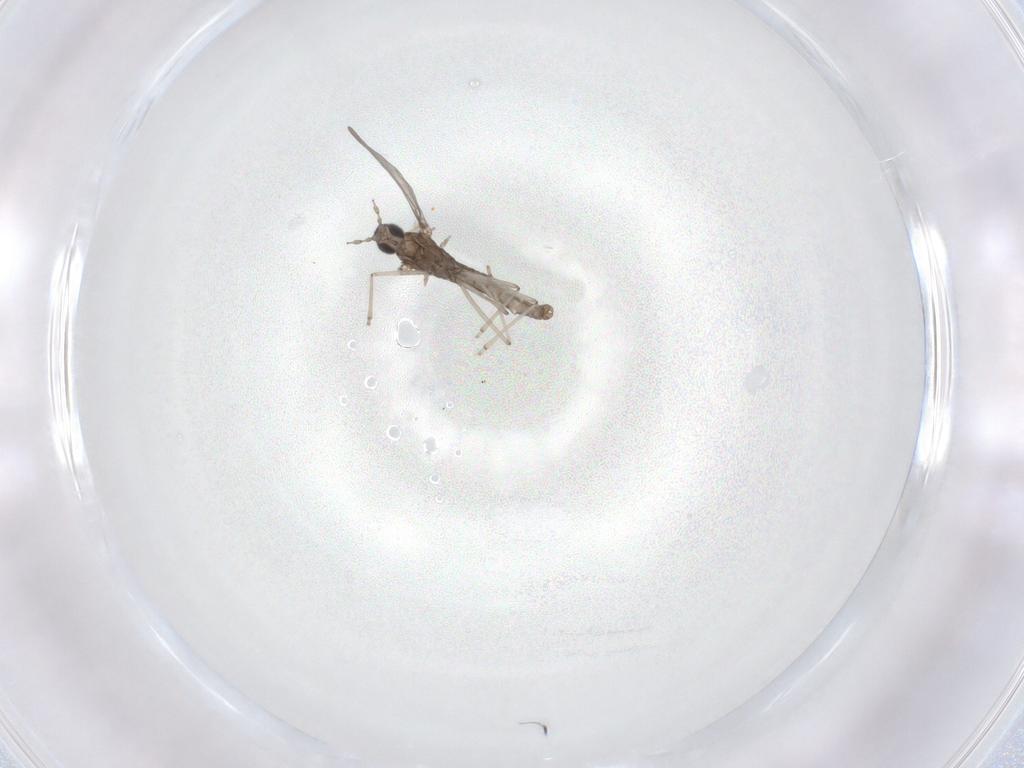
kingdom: Animalia
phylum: Arthropoda
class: Insecta
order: Diptera
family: Cecidomyiidae
